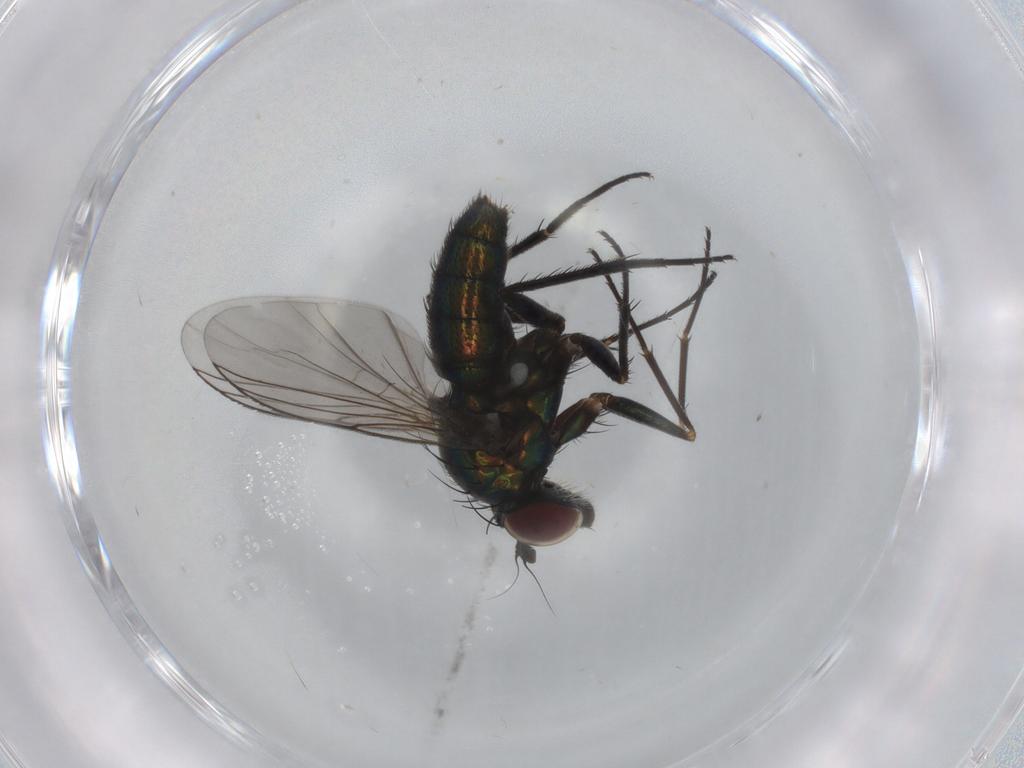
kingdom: Animalia
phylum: Arthropoda
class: Insecta
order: Diptera
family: Dolichopodidae
